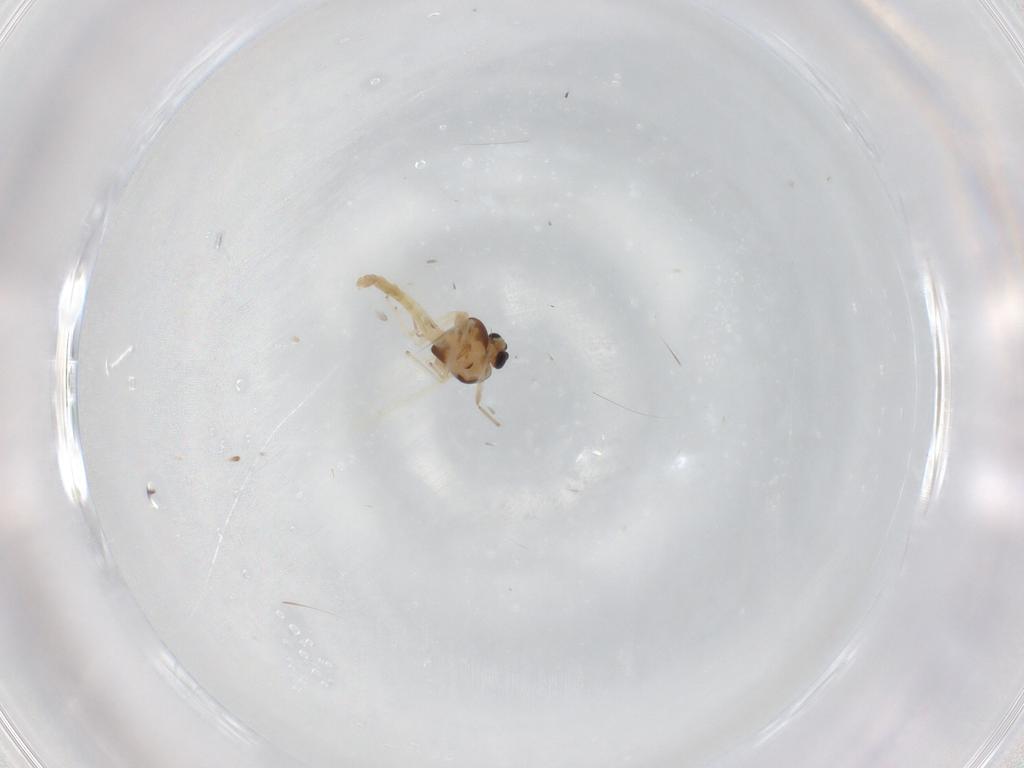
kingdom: Animalia
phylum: Arthropoda
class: Insecta
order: Diptera
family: Chironomidae
